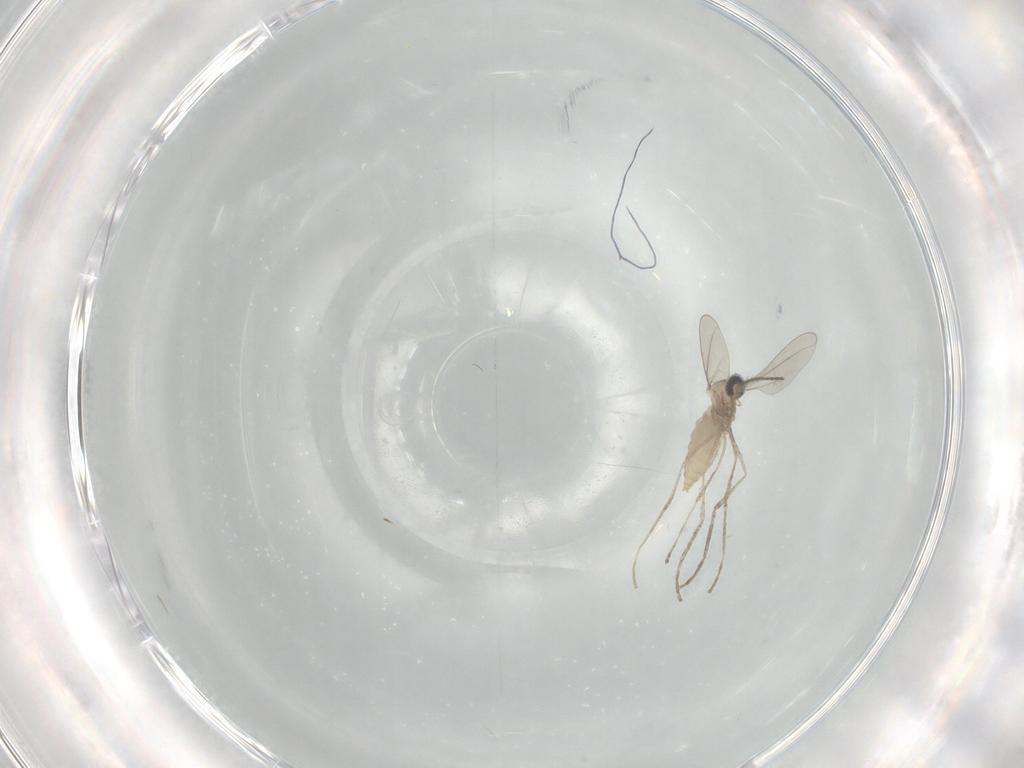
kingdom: Animalia
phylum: Arthropoda
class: Insecta
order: Diptera
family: Cecidomyiidae
